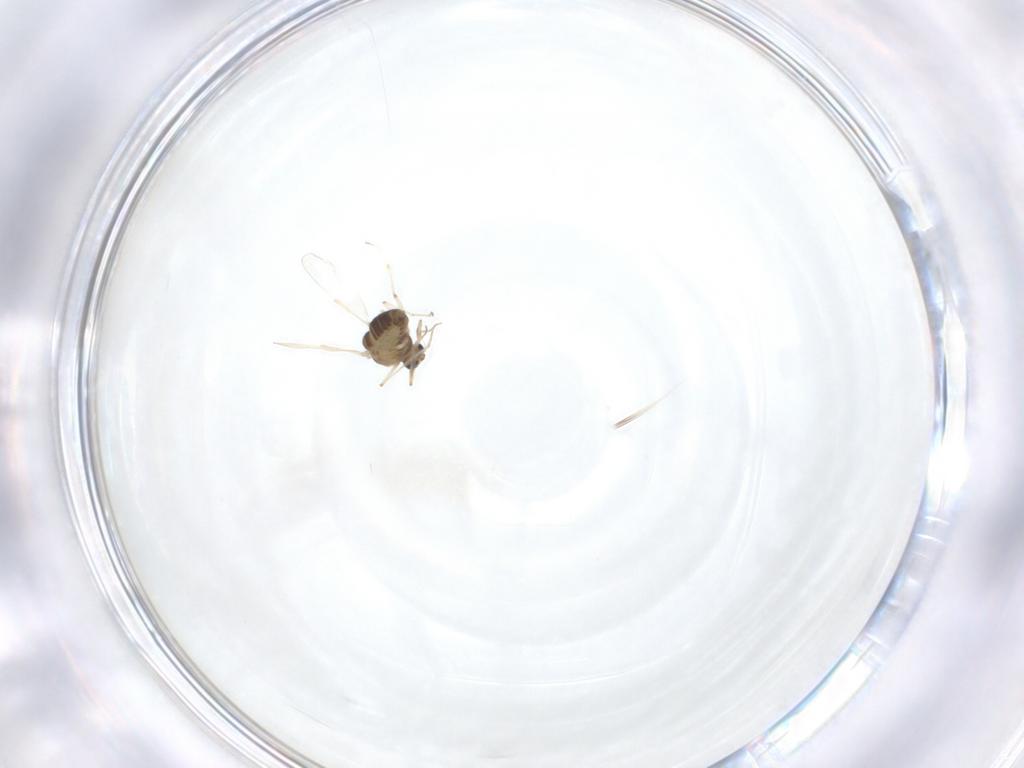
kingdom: Animalia
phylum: Arthropoda
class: Insecta
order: Diptera
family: Chironomidae
